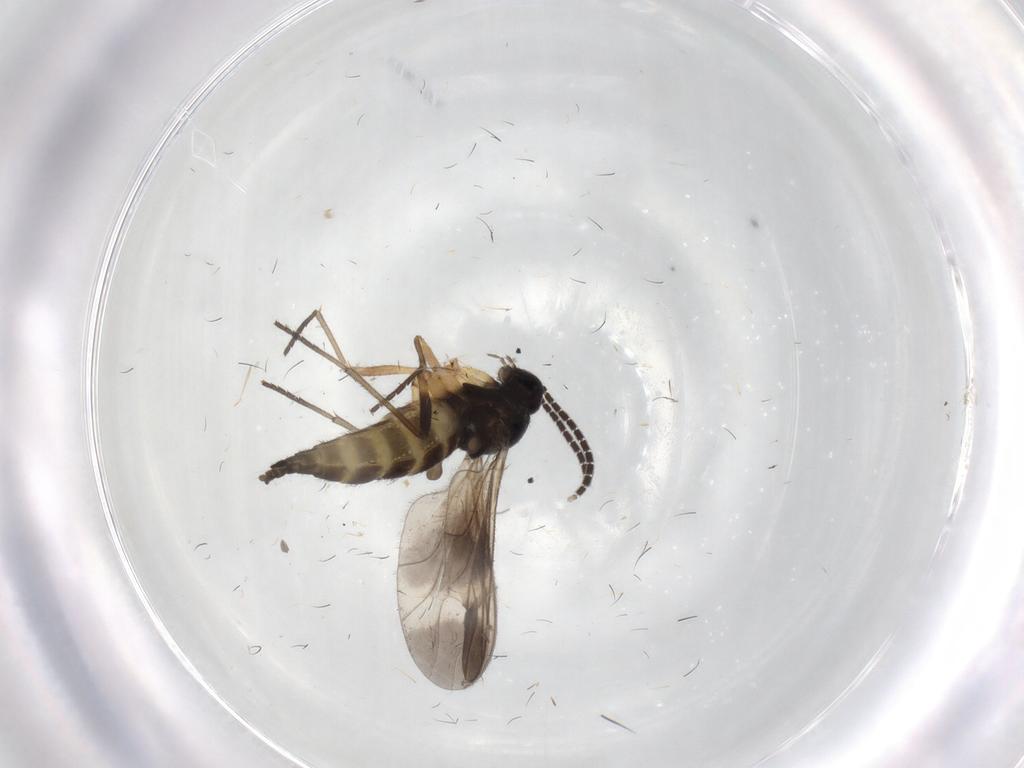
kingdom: Animalia
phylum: Arthropoda
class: Insecta
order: Diptera
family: Sciaridae
